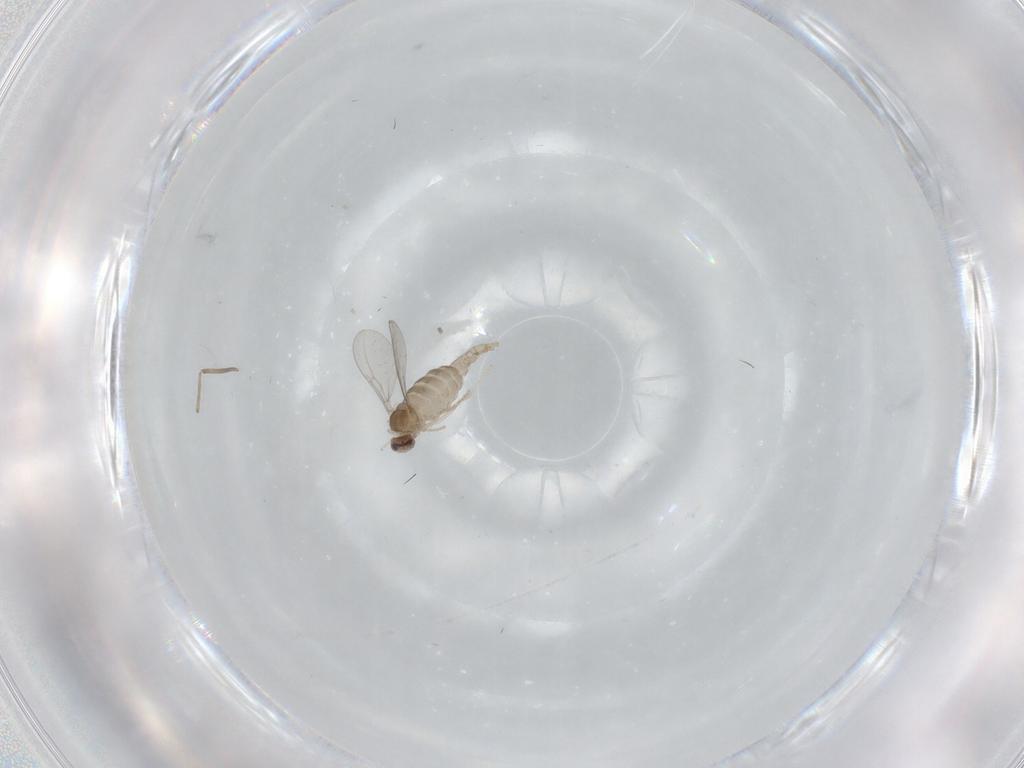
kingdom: Animalia
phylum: Arthropoda
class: Insecta
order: Diptera
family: Cecidomyiidae
